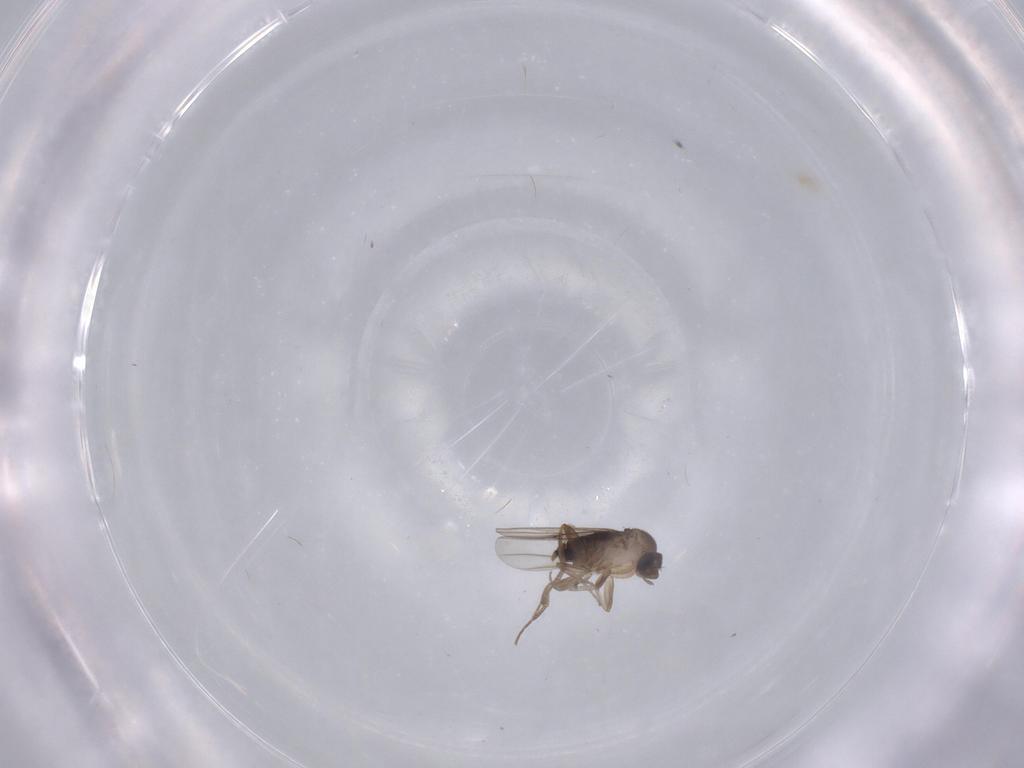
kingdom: Animalia
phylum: Arthropoda
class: Insecta
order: Diptera
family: Phoridae
